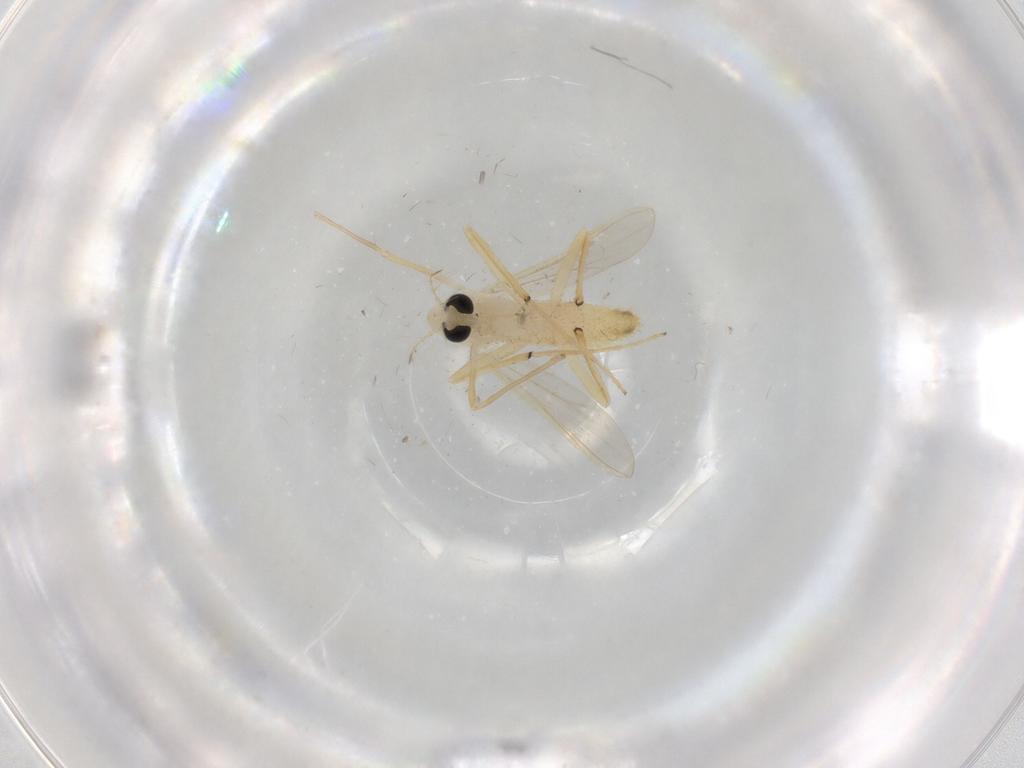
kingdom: Animalia
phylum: Arthropoda
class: Insecta
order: Diptera
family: Chironomidae
